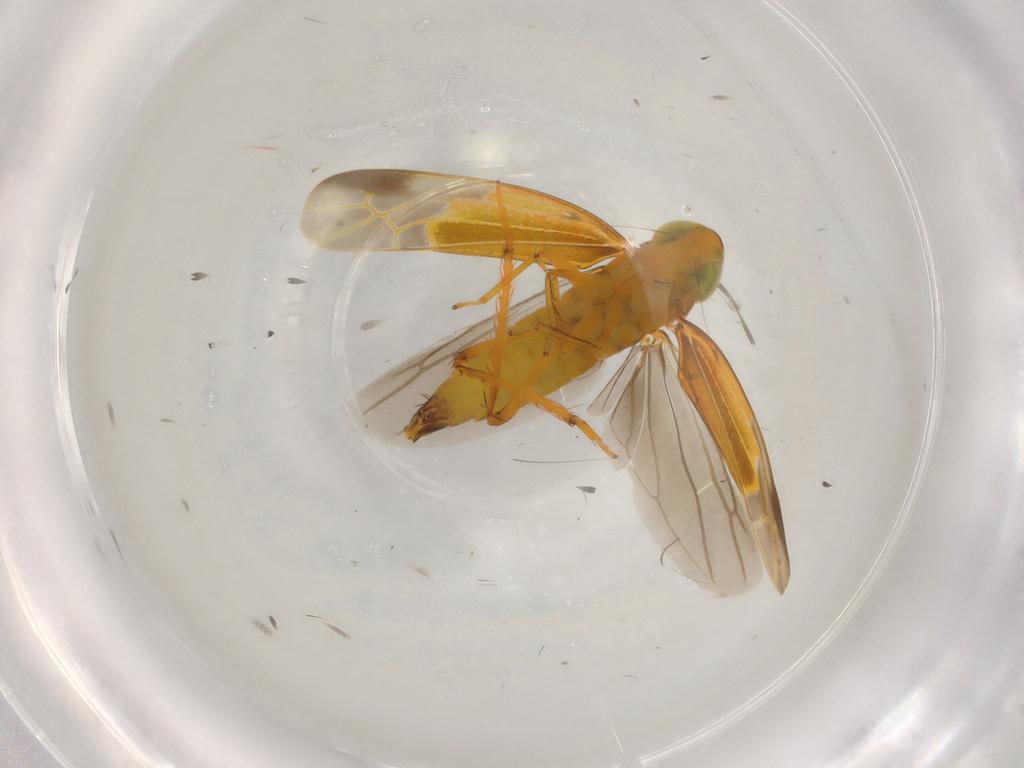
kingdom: Animalia
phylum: Arthropoda
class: Insecta
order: Hemiptera
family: Cicadellidae
